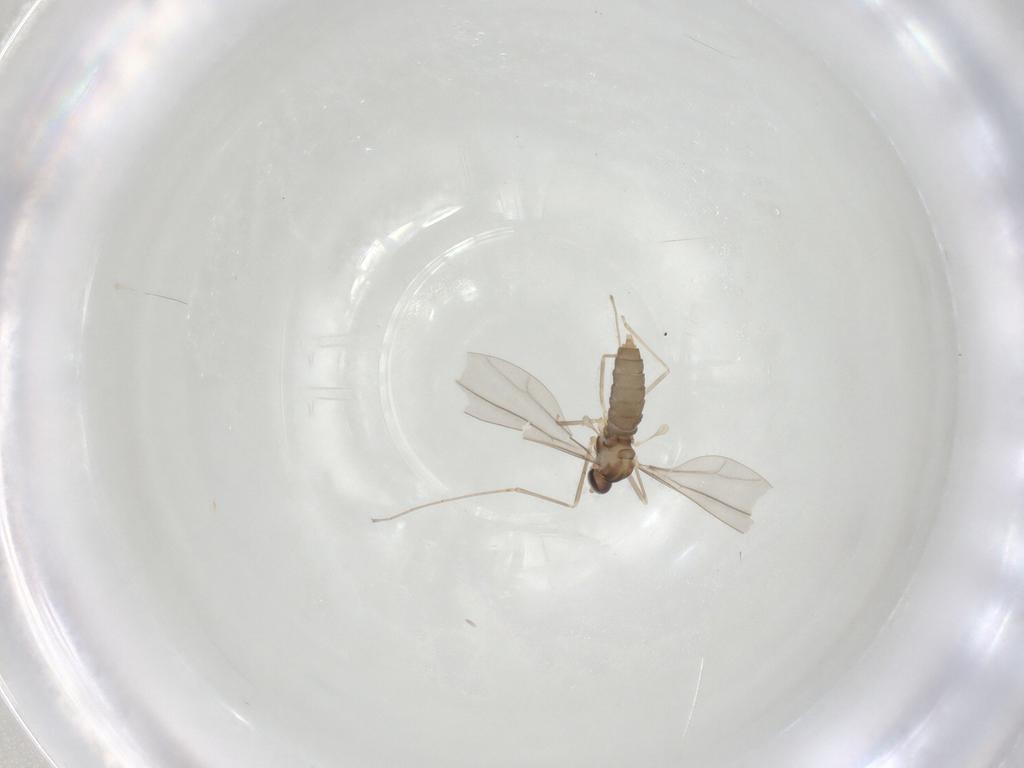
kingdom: Animalia
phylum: Arthropoda
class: Insecta
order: Diptera
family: Cecidomyiidae
